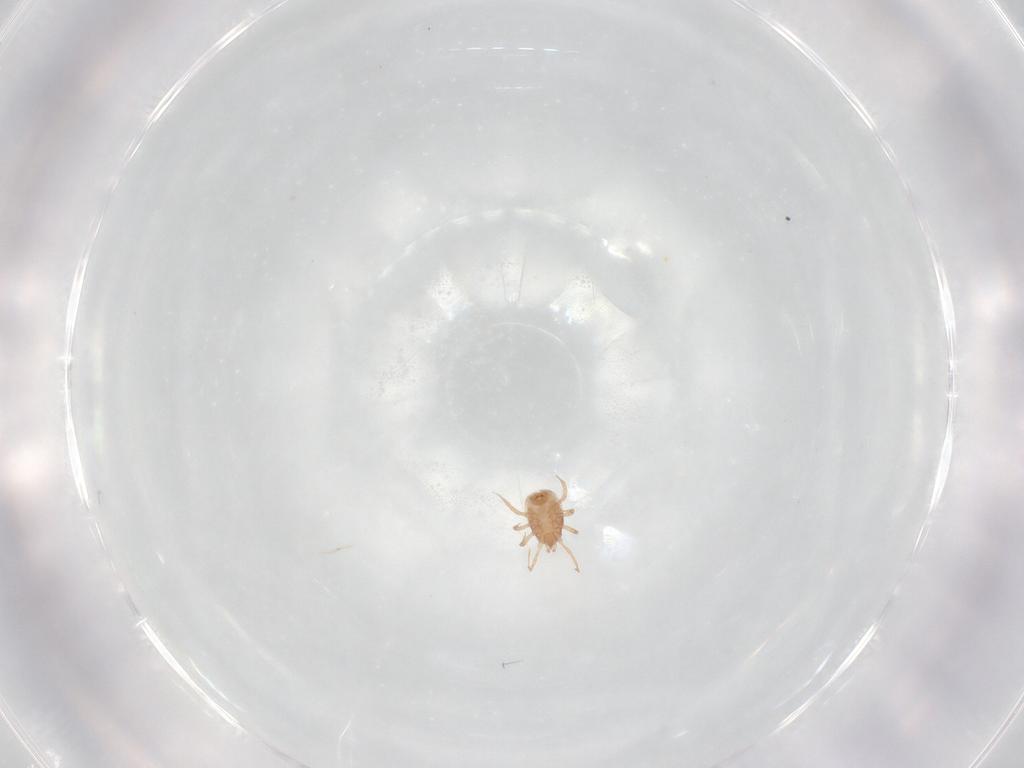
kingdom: Animalia
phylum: Arthropoda
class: Arachnida
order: Mesostigmata
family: Blattisociidae
